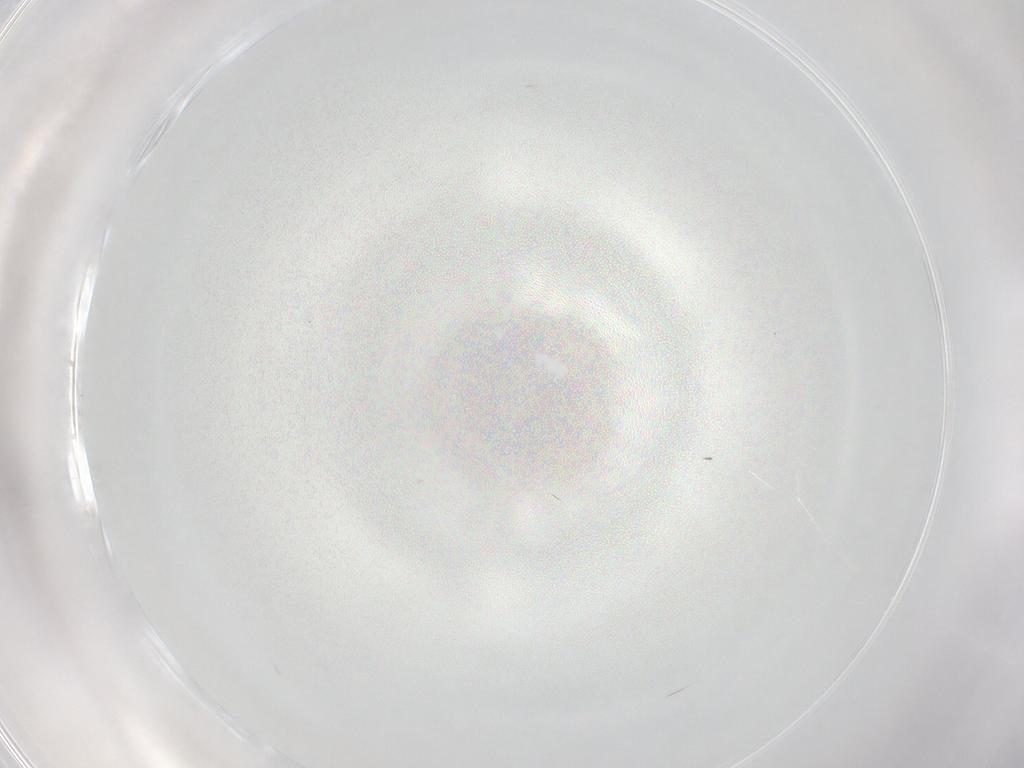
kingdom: Animalia
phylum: Arthropoda
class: Insecta
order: Diptera
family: Cecidomyiidae
